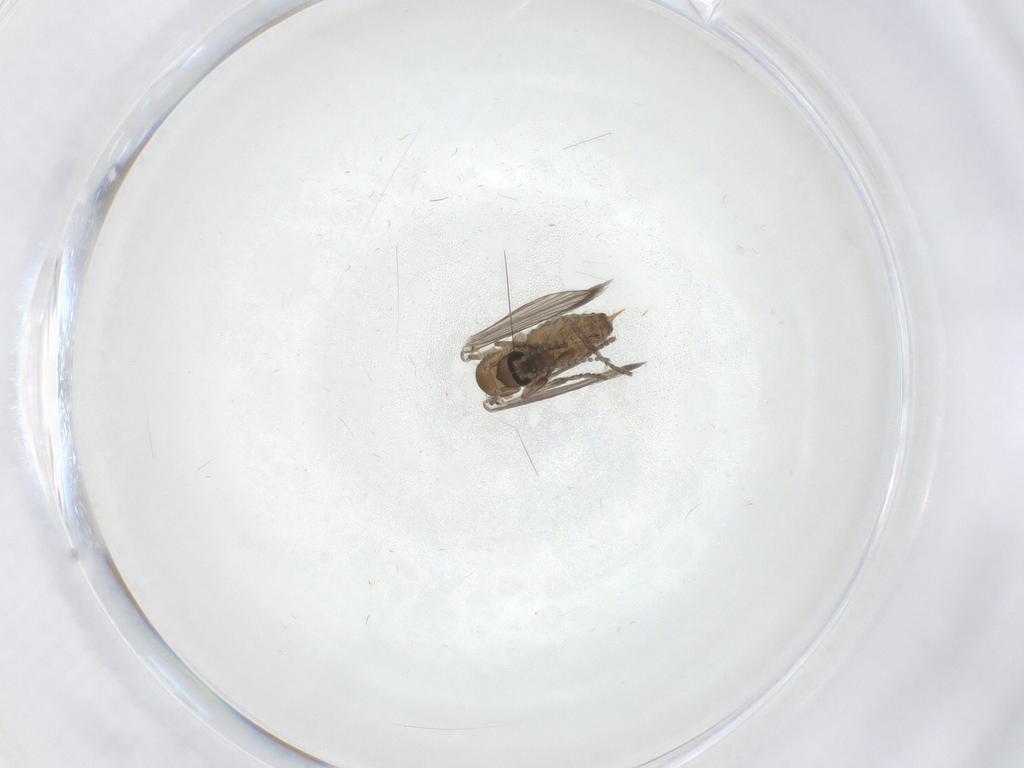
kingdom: Animalia
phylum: Arthropoda
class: Insecta
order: Diptera
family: Psychodidae
